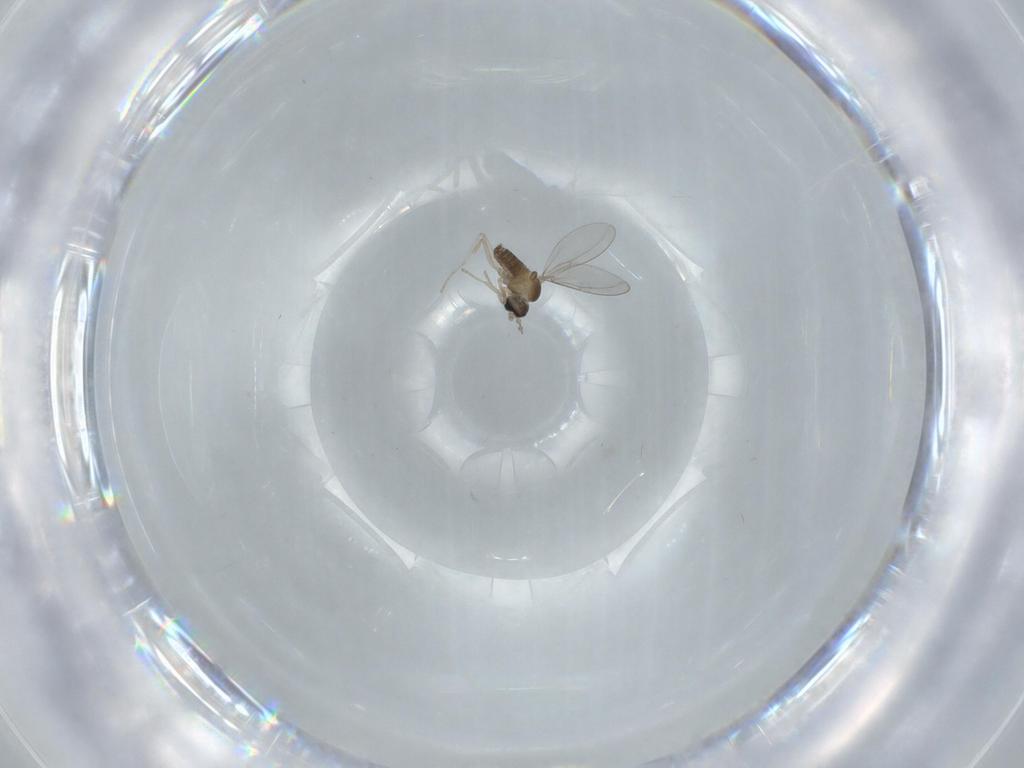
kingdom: Animalia
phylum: Arthropoda
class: Insecta
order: Diptera
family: Cecidomyiidae
